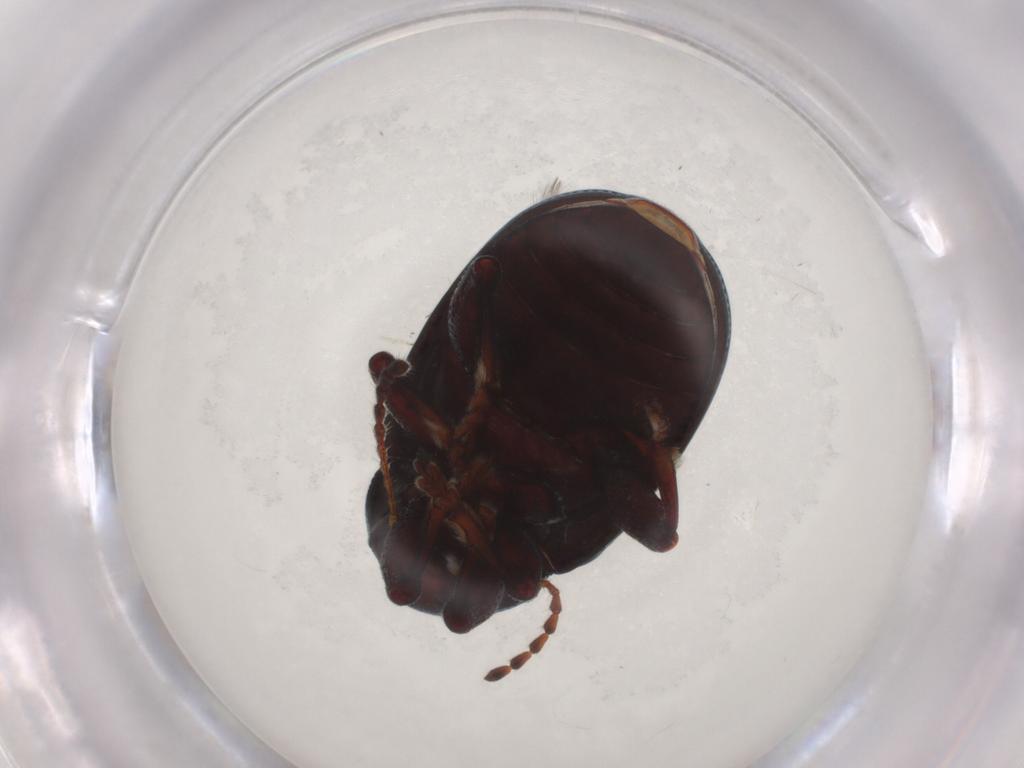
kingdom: Animalia
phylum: Arthropoda
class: Insecta
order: Coleoptera
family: Chrysomelidae
